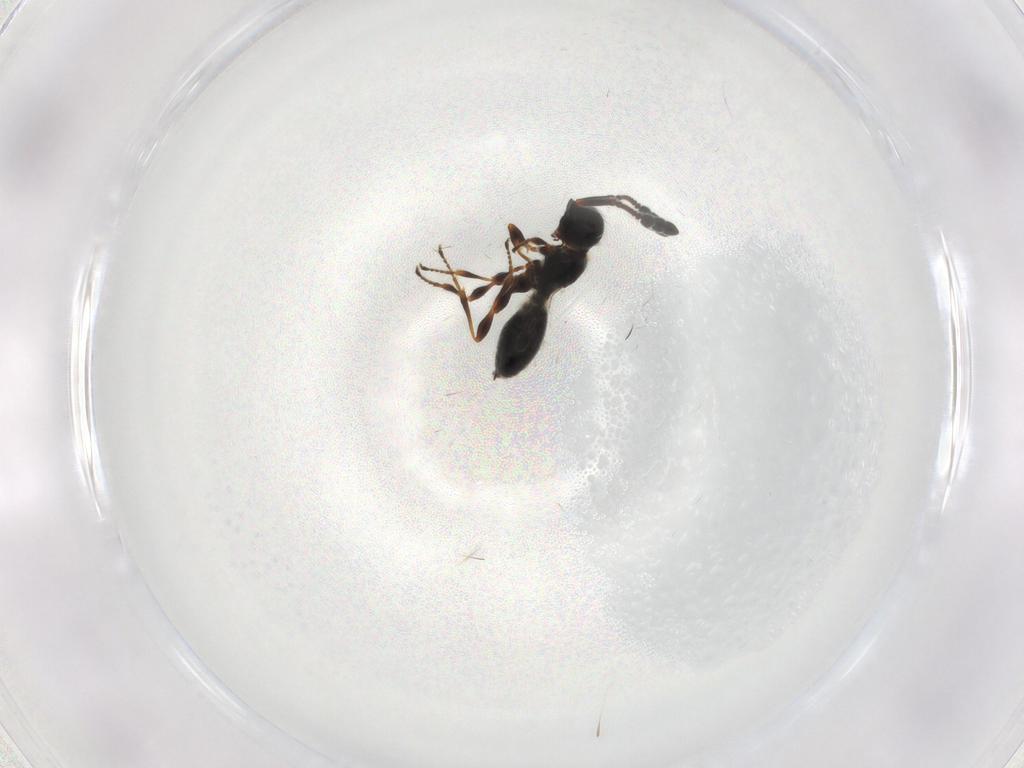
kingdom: Animalia
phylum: Arthropoda
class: Insecta
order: Hymenoptera
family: Diapriidae
